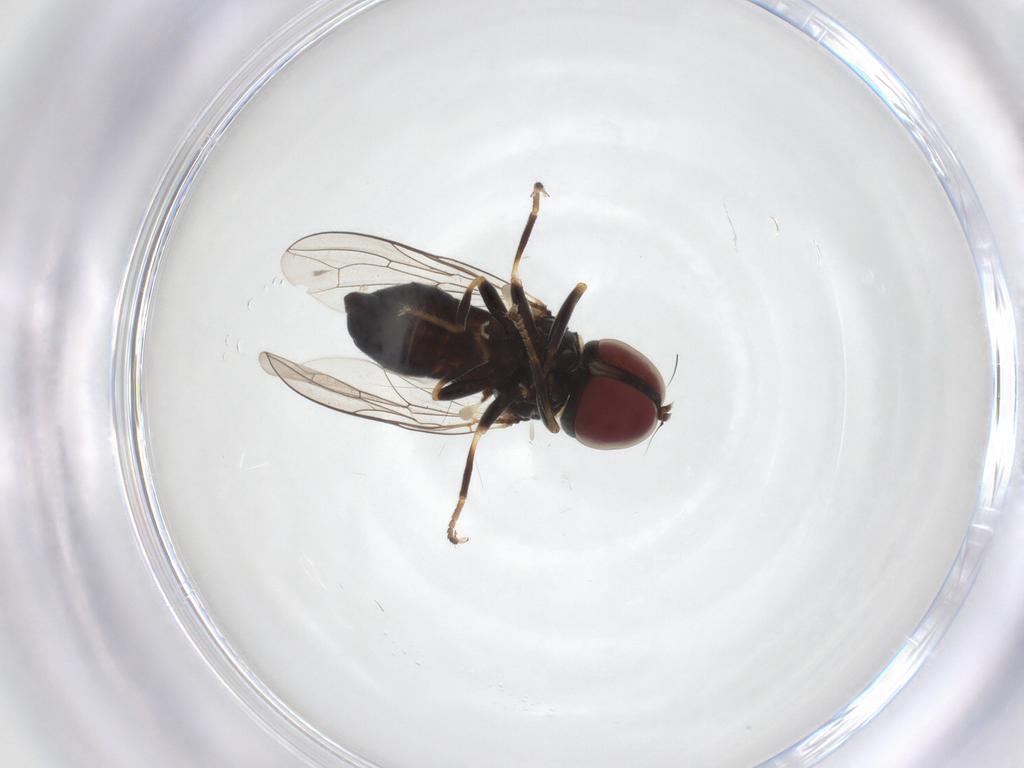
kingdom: Animalia
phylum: Arthropoda
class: Insecta
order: Diptera
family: Pipunculidae
